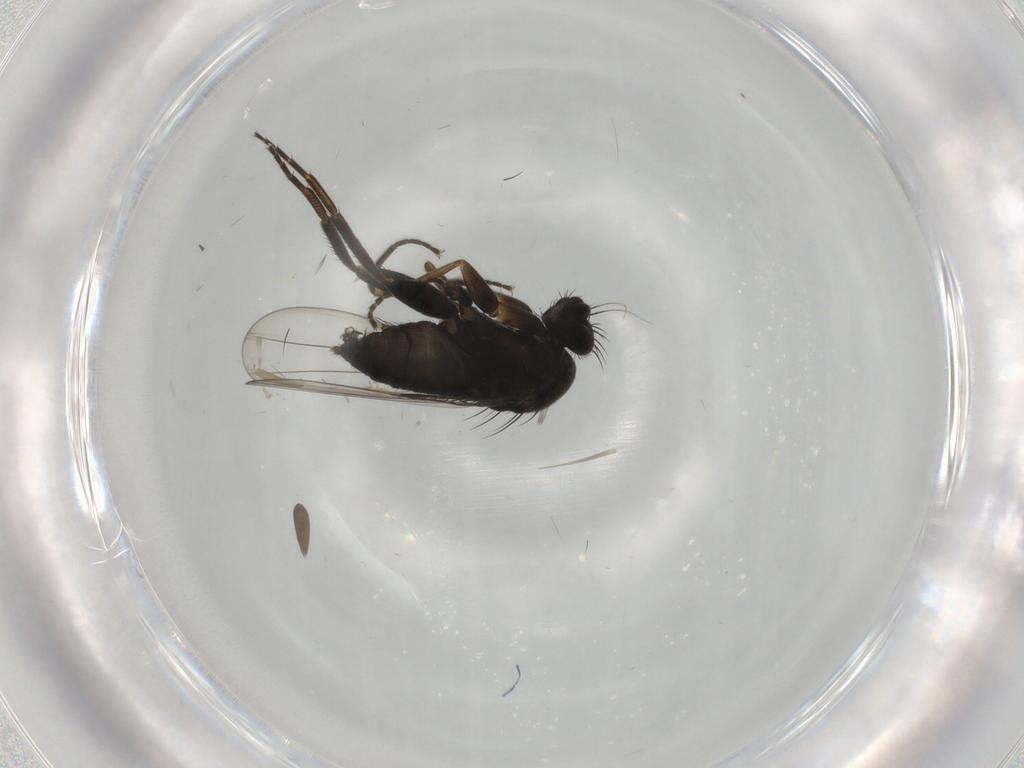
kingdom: Animalia
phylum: Arthropoda
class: Insecta
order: Diptera
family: Phoridae
